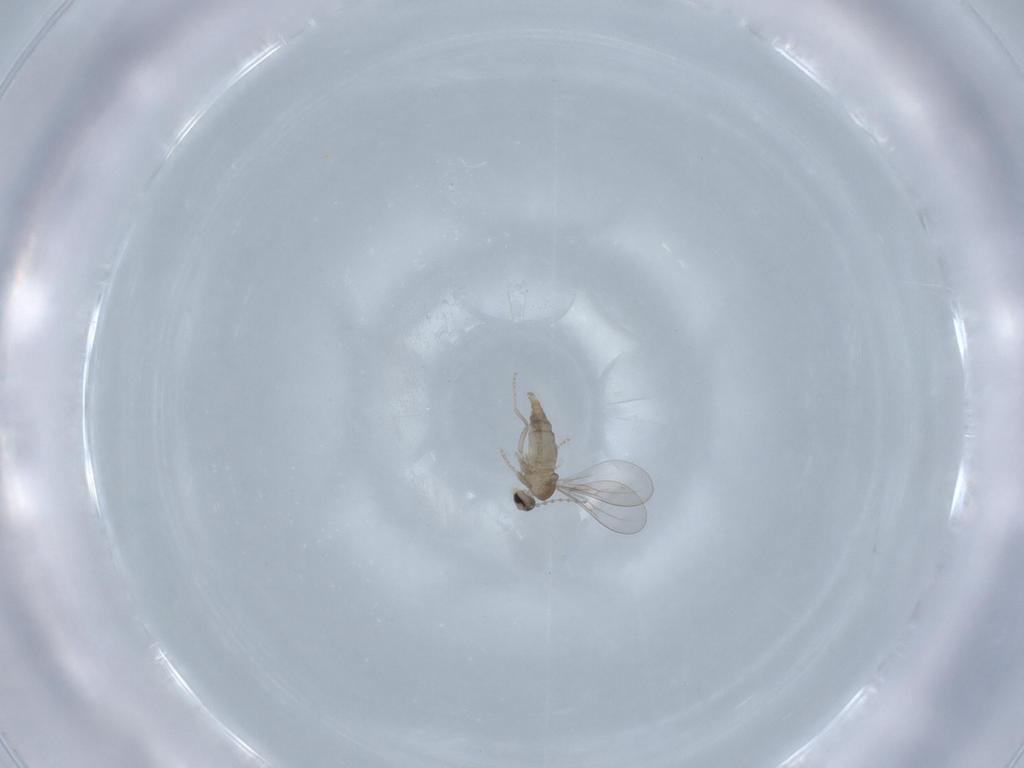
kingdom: Animalia
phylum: Arthropoda
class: Insecta
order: Diptera
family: Cecidomyiidae
